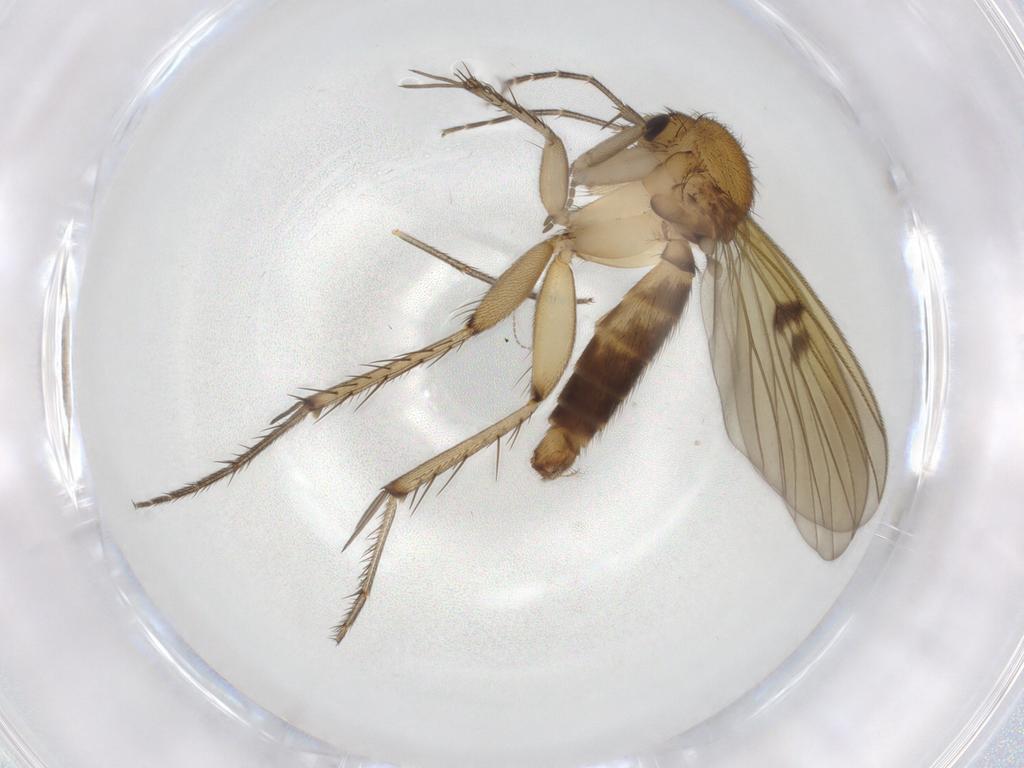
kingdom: Animalia
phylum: Arthropoda
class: Insecta
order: Diptera
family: Mycetophilidae
